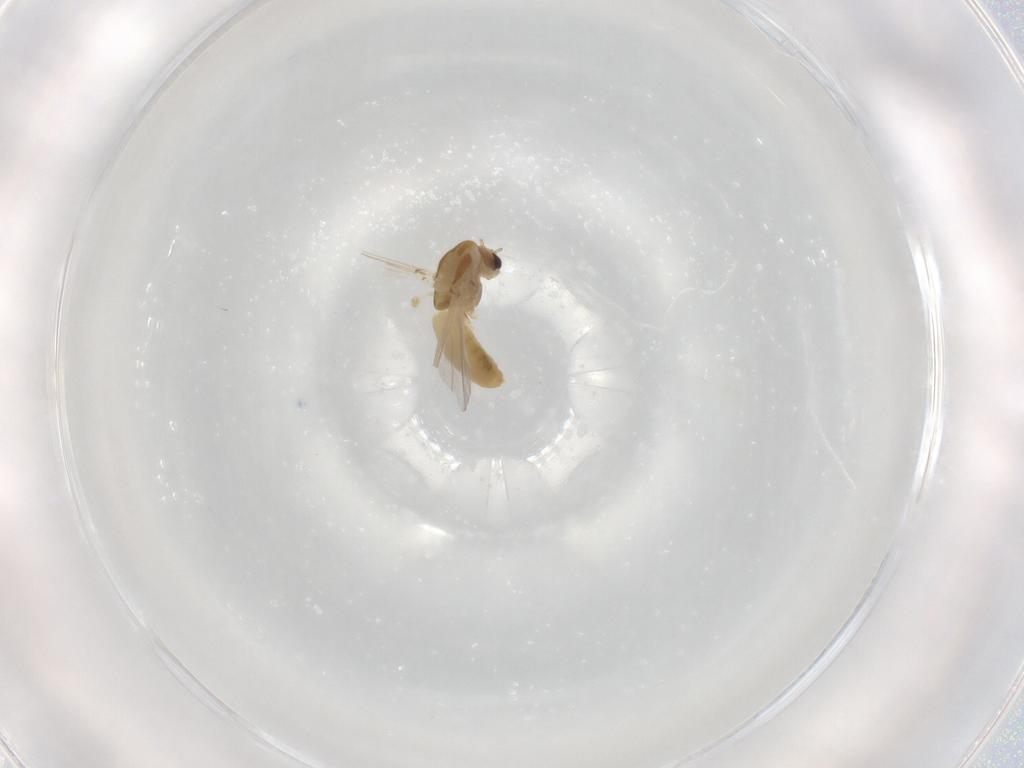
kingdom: Animalia
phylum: Arthropoda
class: Insecta
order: Diptera
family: Chironomidae
